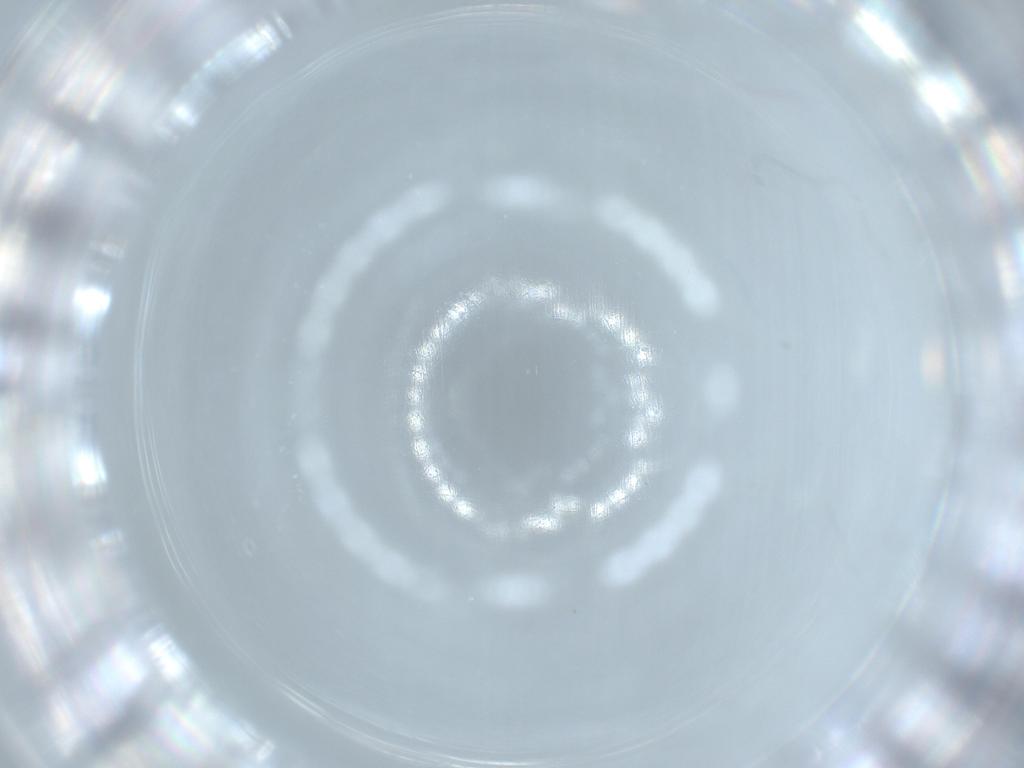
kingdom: Animalia
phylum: Arthropoda
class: Insecta
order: Hymenoptera
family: Mymaridae
